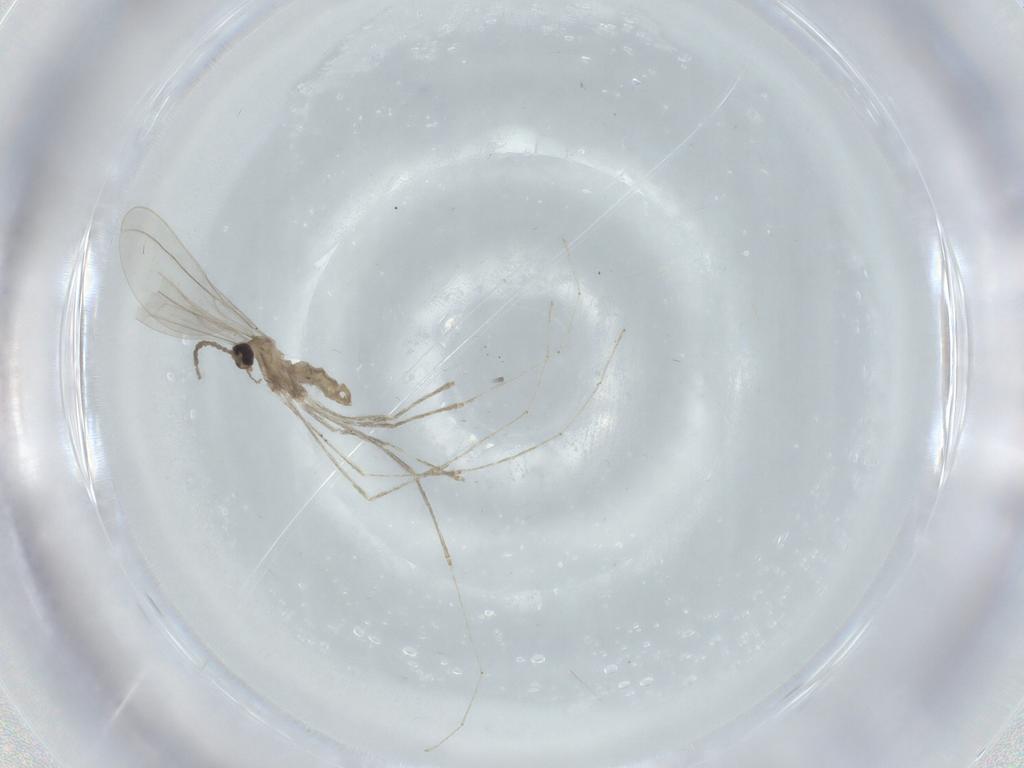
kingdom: Animalia
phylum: Arthropoda
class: Insecta
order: Diptera
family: Cecidomyiidae
